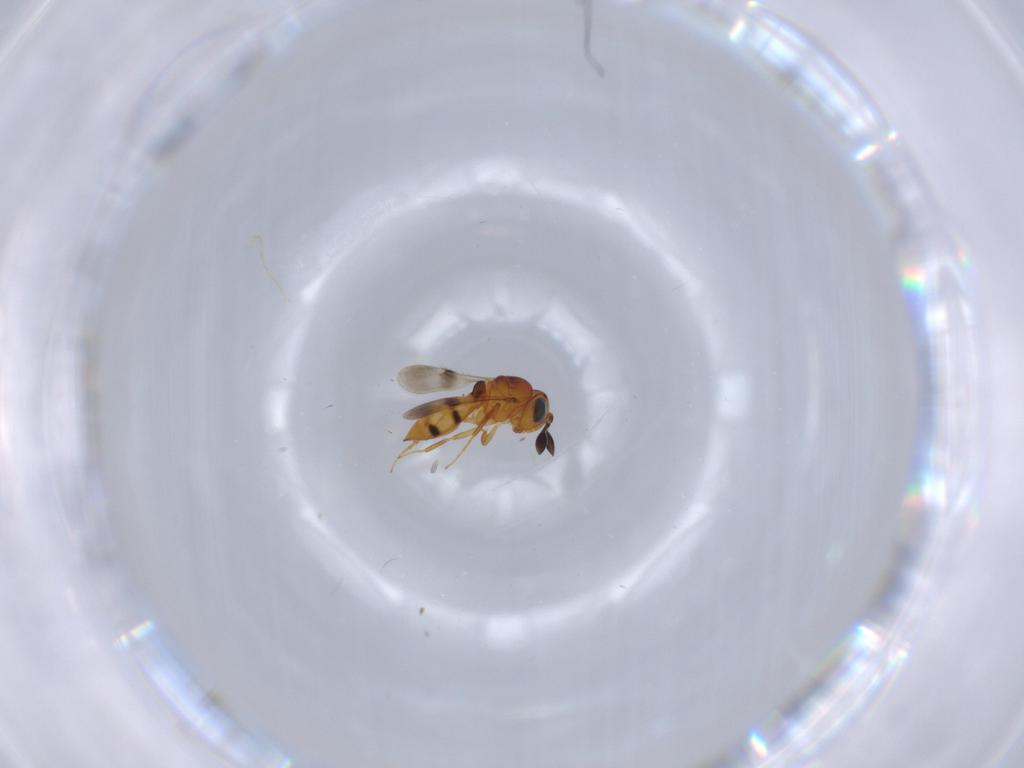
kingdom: Animalia
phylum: Arthropoda
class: Insecta
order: Hymenoptera
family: Scelionidae
